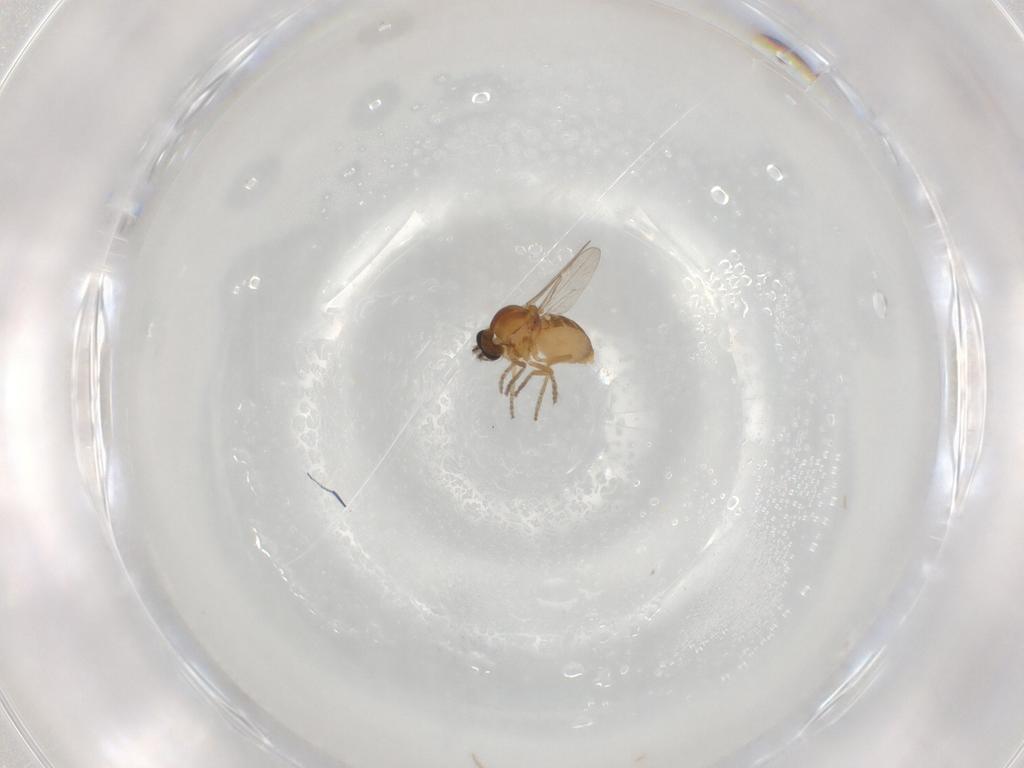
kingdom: Animalia
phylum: Arthropoda
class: Insecta
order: Diptera
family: Ceratopogonidae
